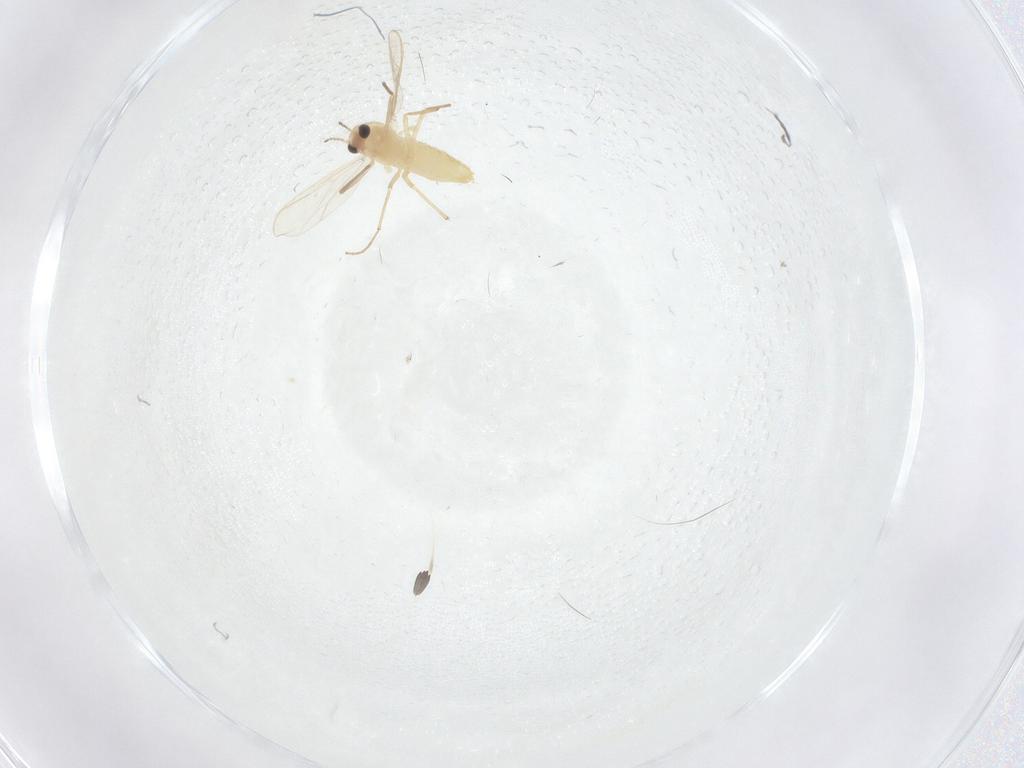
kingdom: Animalia
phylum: Arthropoda
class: Insecta
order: Diptera
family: Chironomidae
